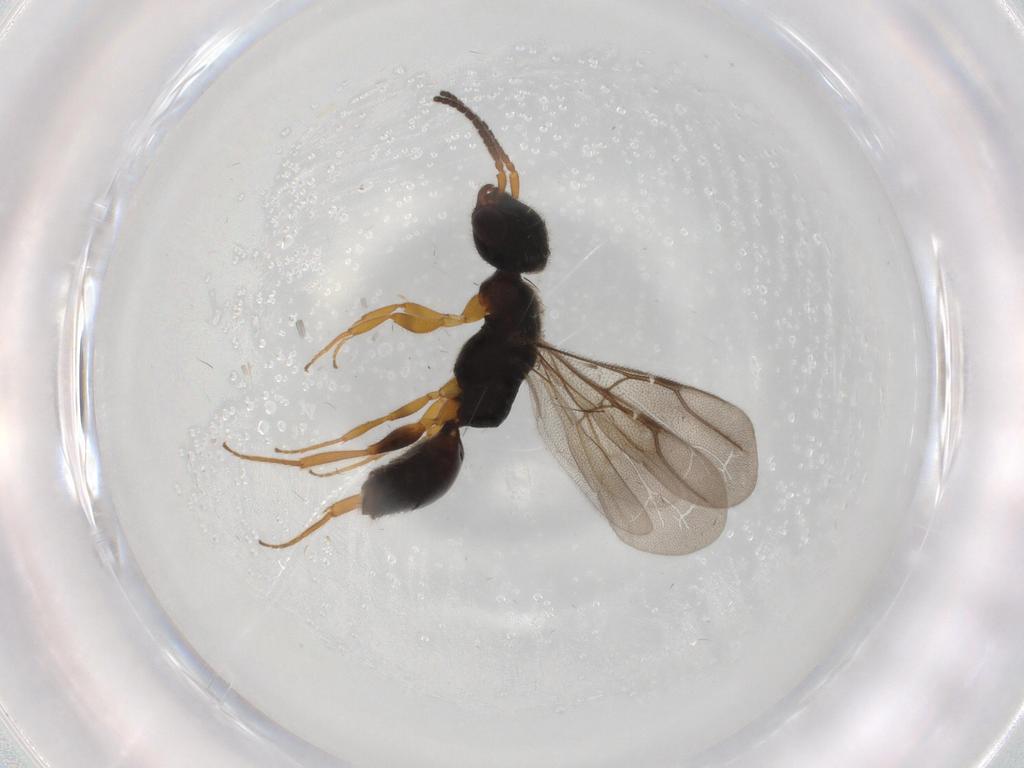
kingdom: Animalia
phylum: Arthropoda
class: Insecta
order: Hymenoptera
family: Bethylidae
